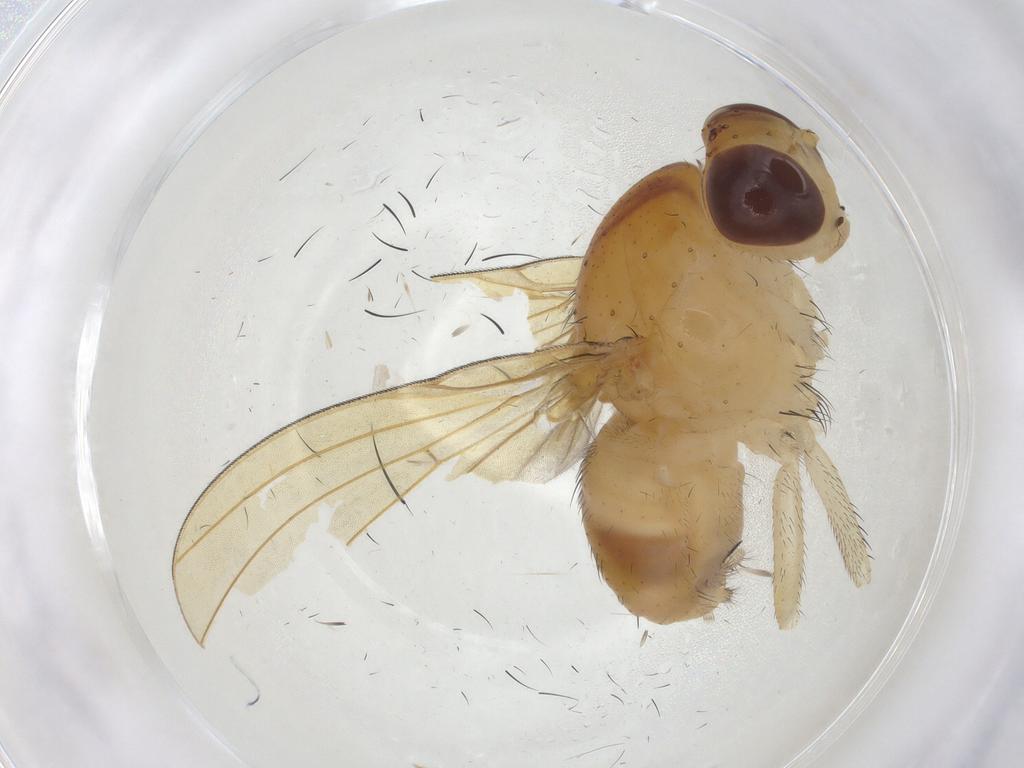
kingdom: Animalia
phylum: Arthropoda
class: Insecta
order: Diptera
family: Dolichopodidae
